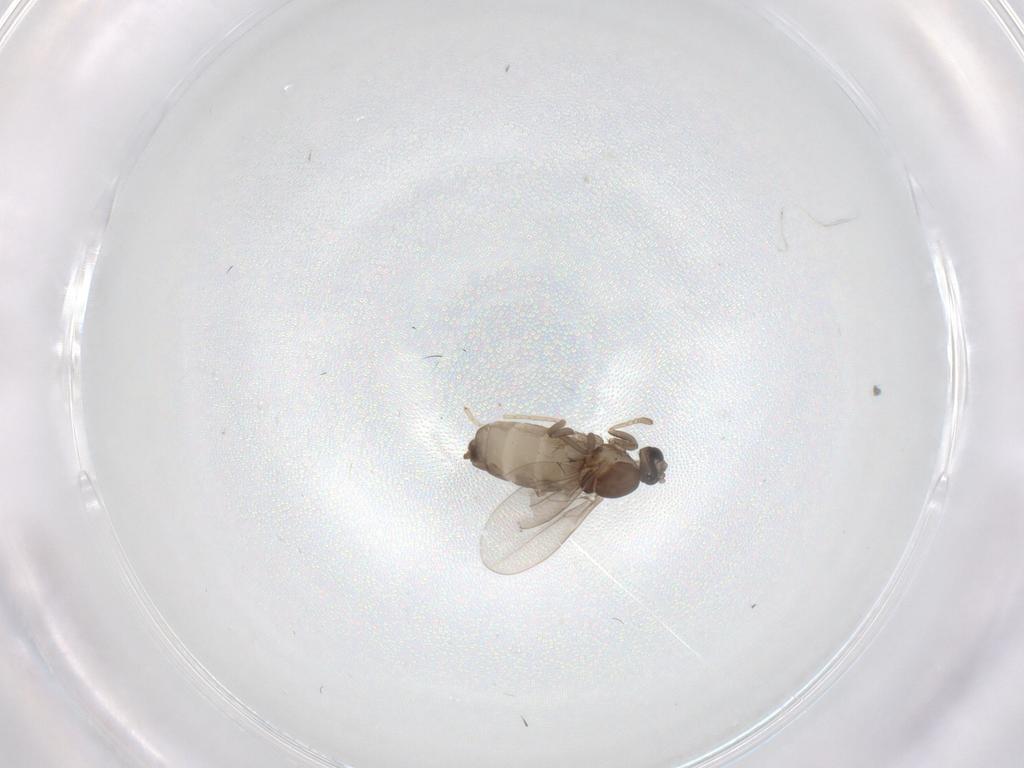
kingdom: Animalia
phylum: Arthropoda
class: Insecta
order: Diptera
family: Cecidomyiidae
